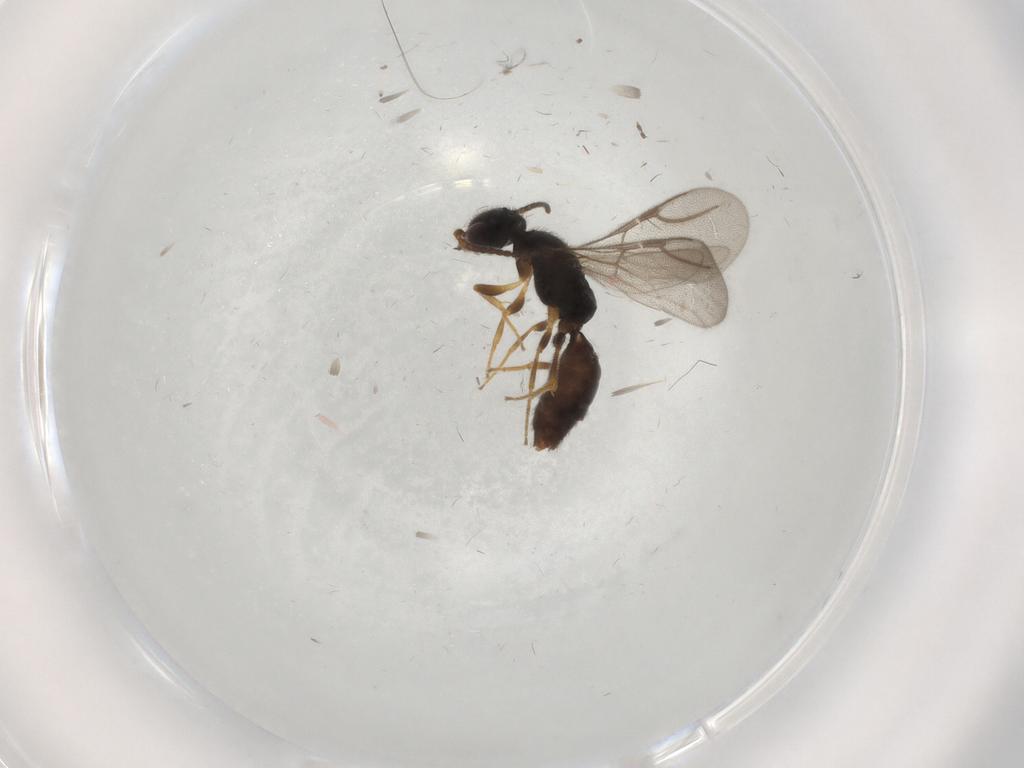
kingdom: Animalia
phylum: Arthropoda
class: Insecta
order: Hymenoptera
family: Bethylidae
